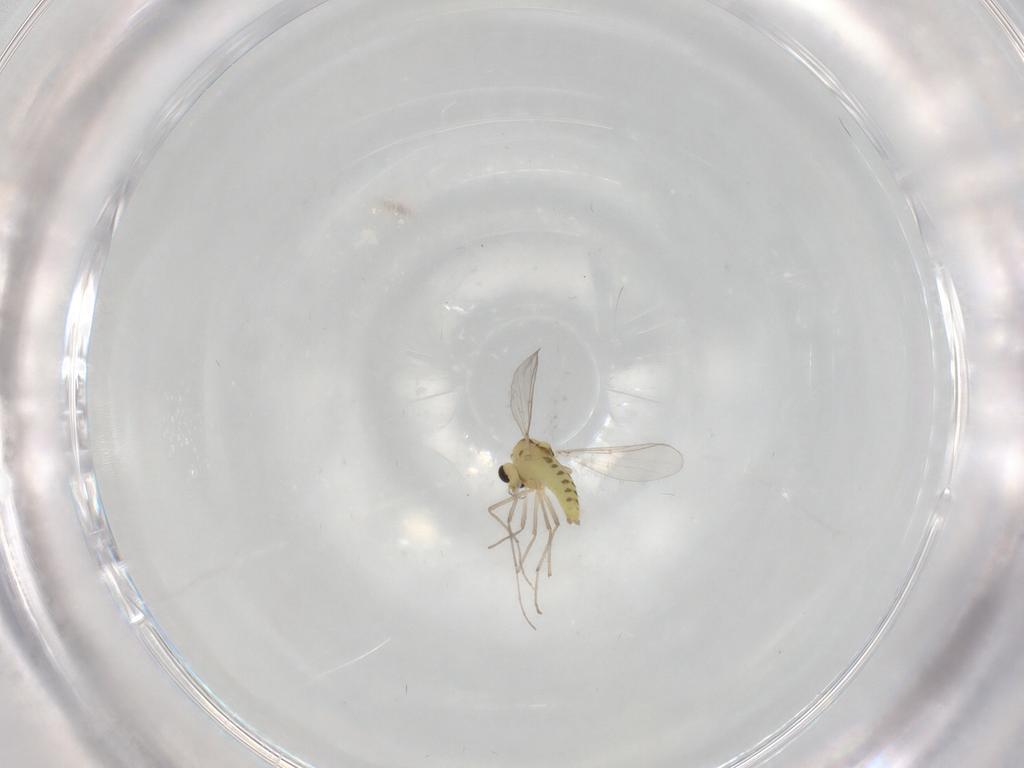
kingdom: Animalia
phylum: Arthropoda
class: Insecta
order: Diptera
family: Chironomidae
